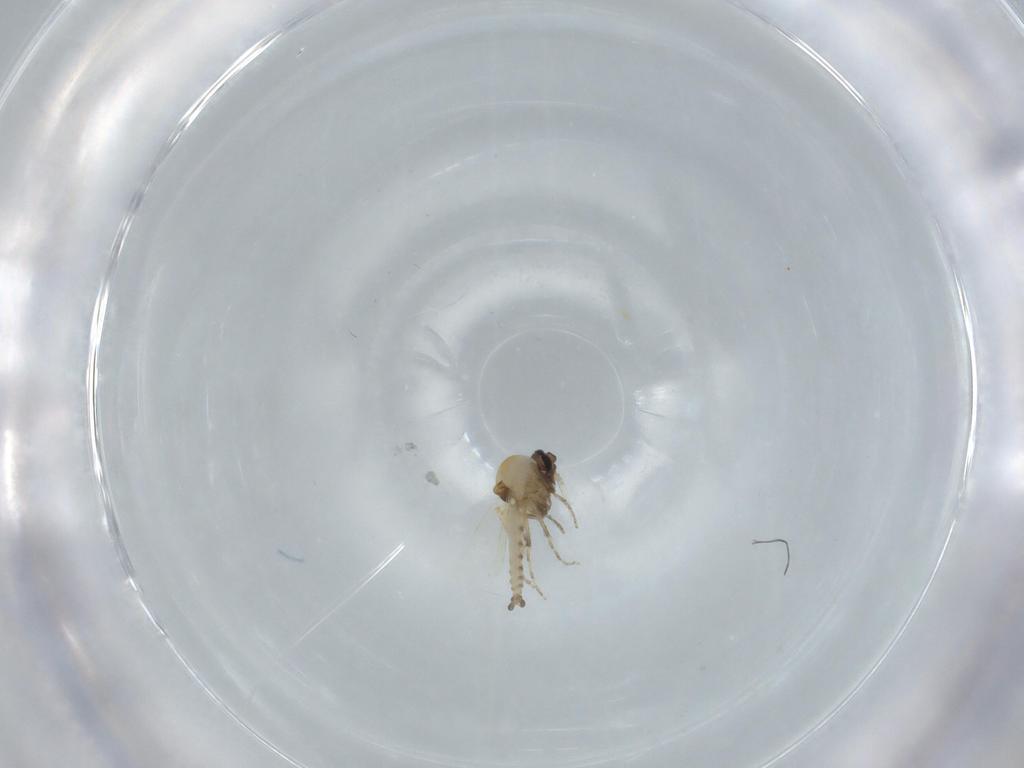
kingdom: Animalia
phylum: Arthropoda
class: Insecta
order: Diptera
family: Ceratopogonidae
